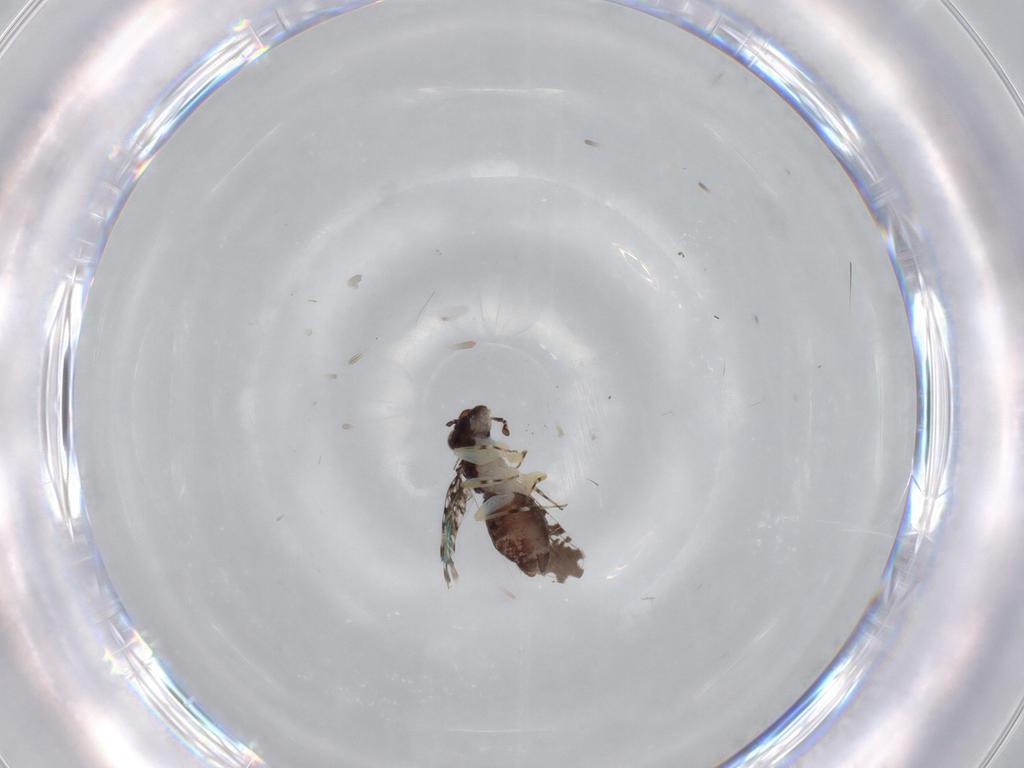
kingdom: Animalia
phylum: Arthropoda
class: Insecta
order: Psocodea
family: Psoquillidae
